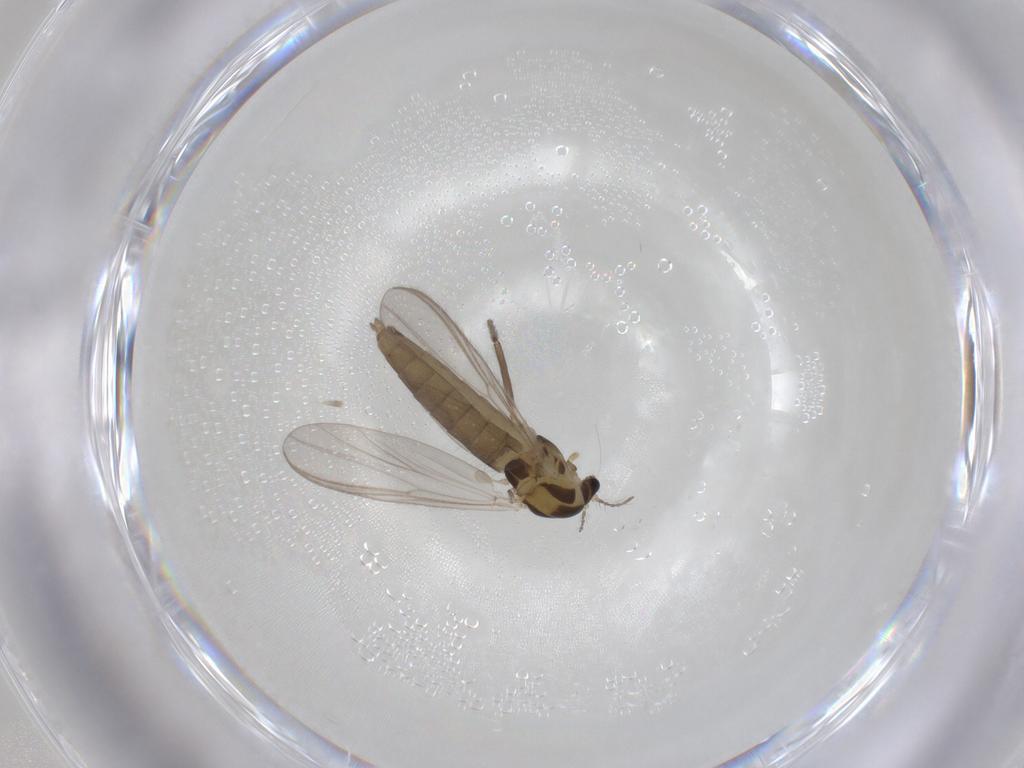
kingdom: Animalia
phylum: Arthropoda
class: Insecta
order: Diptera
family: Chironomidae
